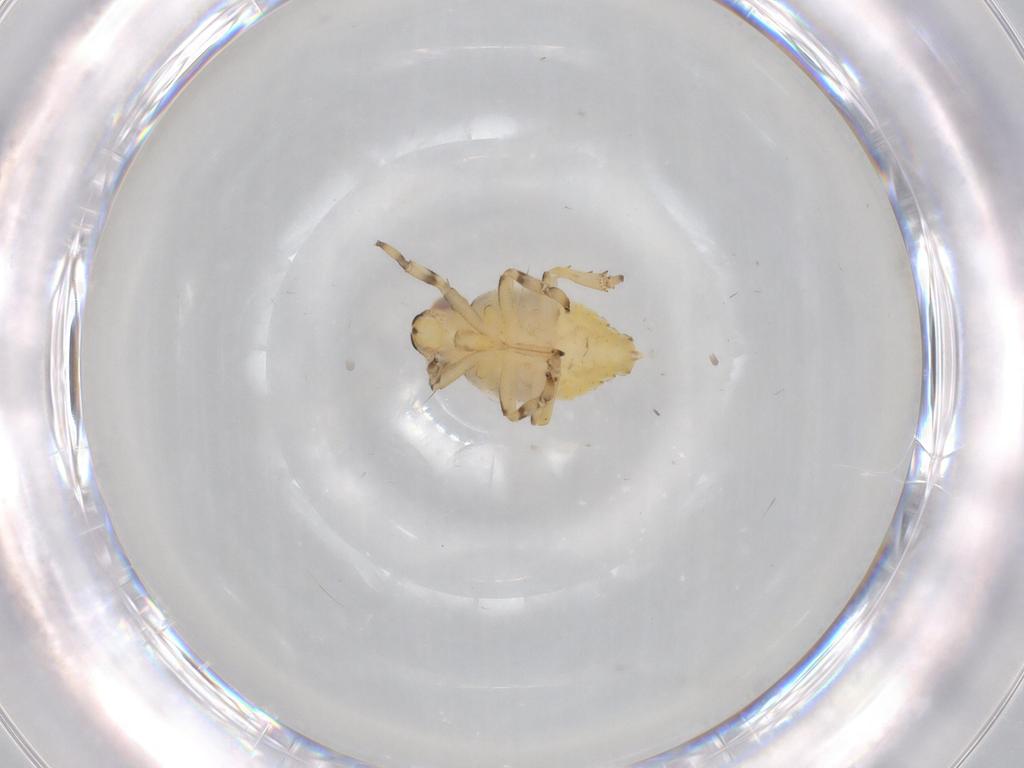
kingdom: Animalia
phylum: Arthropoda
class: Insecta
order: Hemiptera
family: Issidae
